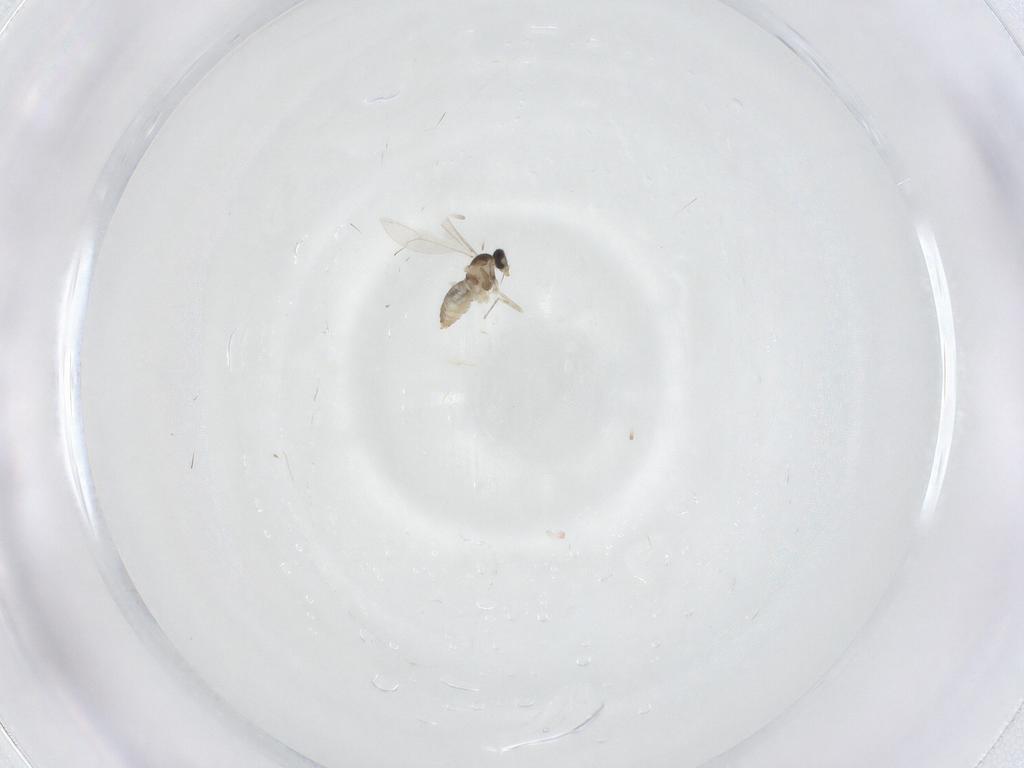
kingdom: Animalia
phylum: Arthropoda
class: Insecta
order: Diptera
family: Cecidomyiidae
